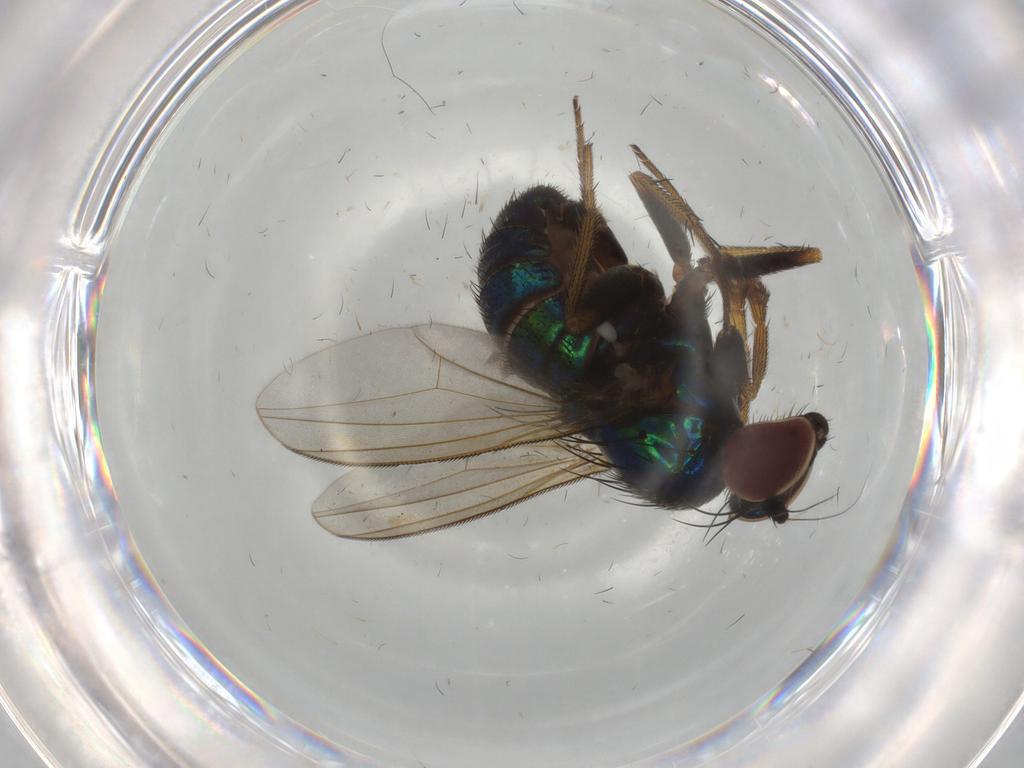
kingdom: Animalia
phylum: Arthropoda
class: Insecta
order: Diptera
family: Dolichopodidae
